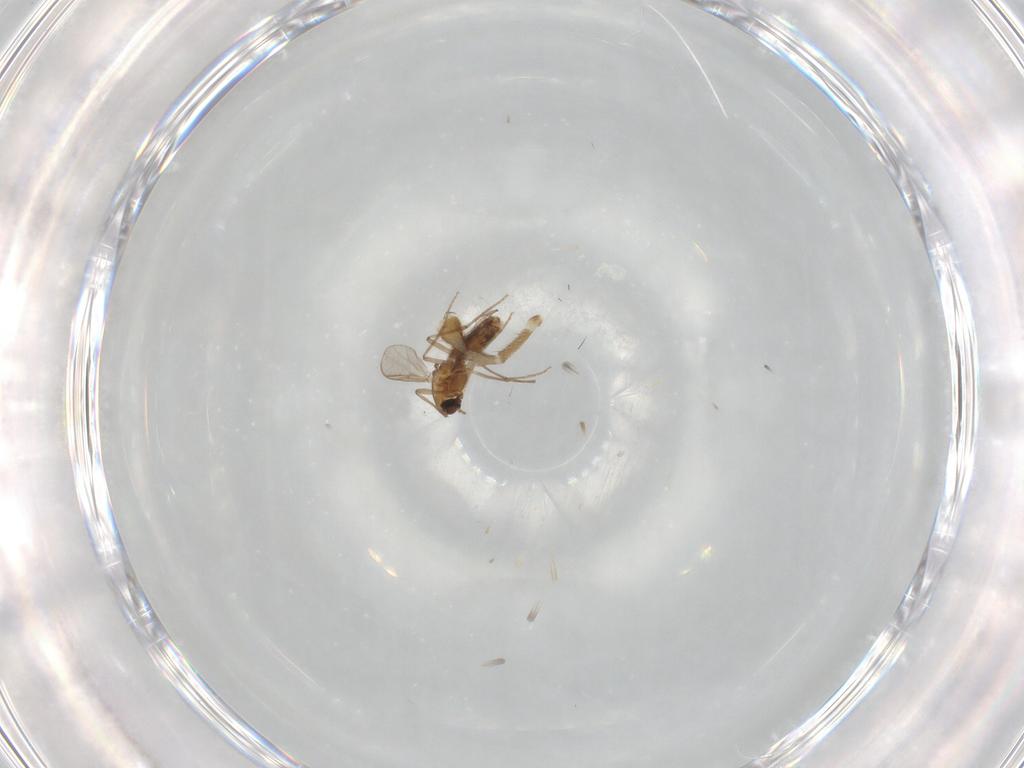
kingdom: Animalia
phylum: Arthropoda
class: Insecta
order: Diptera
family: Chironomidae
